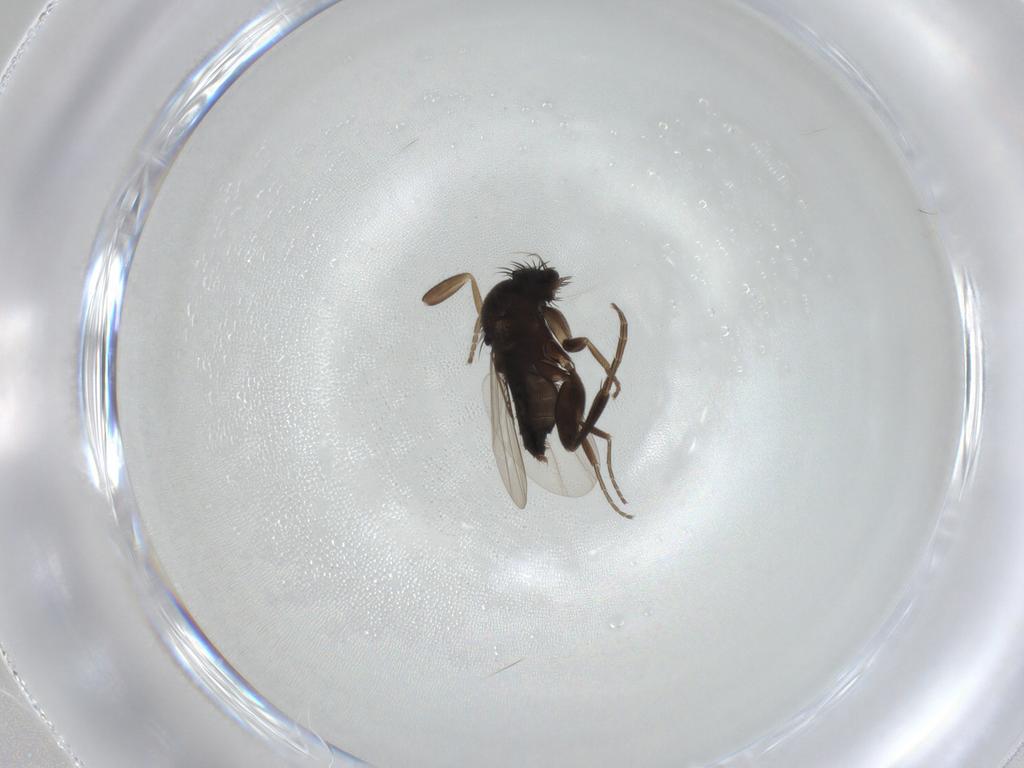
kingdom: Animalia
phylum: Arthropoda
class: Insecta
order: Diptera
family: Phoridae
